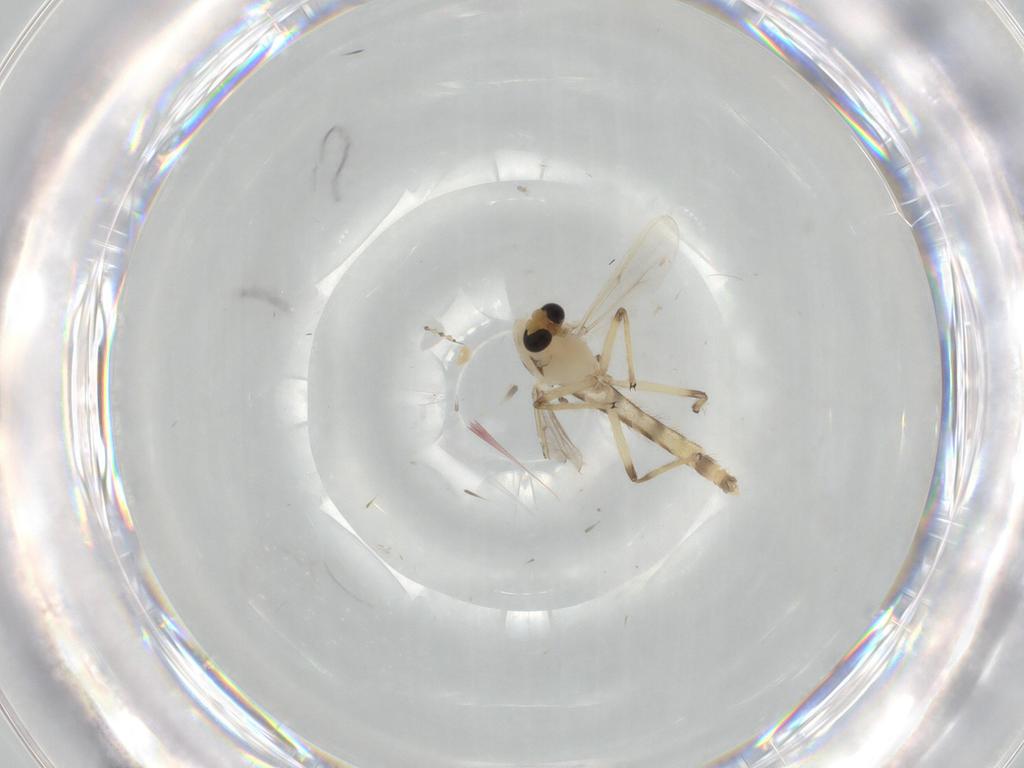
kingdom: Animalia
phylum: Arthropoda
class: Insecta
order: Diptera
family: Chironomidae
